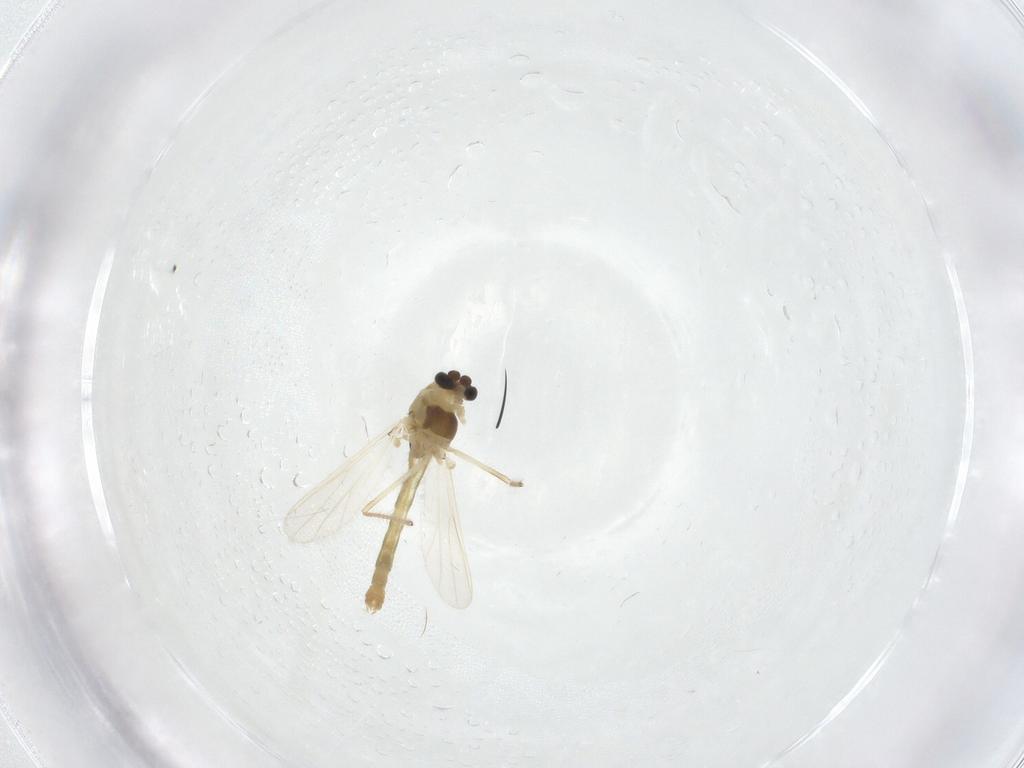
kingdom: Animalia
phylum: Arthropoda
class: Insecta
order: Diptera
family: Chironomidae
